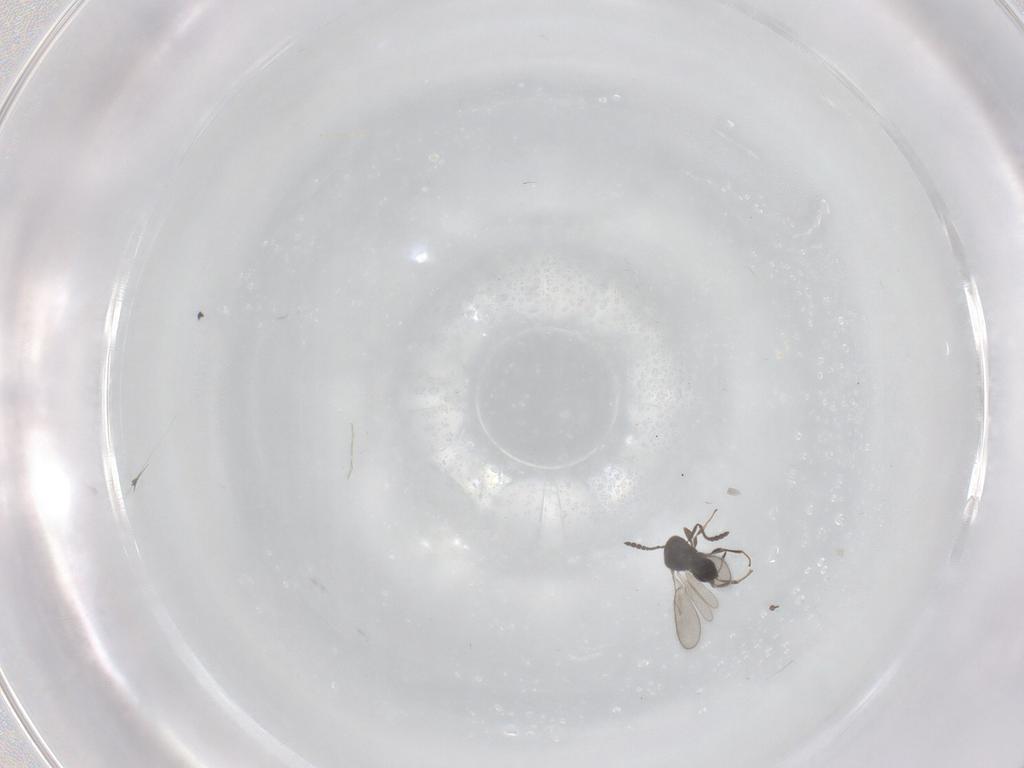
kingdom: Animalia
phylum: Arthropoda
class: Insecta
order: Hymenoptera
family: Scelionidae
